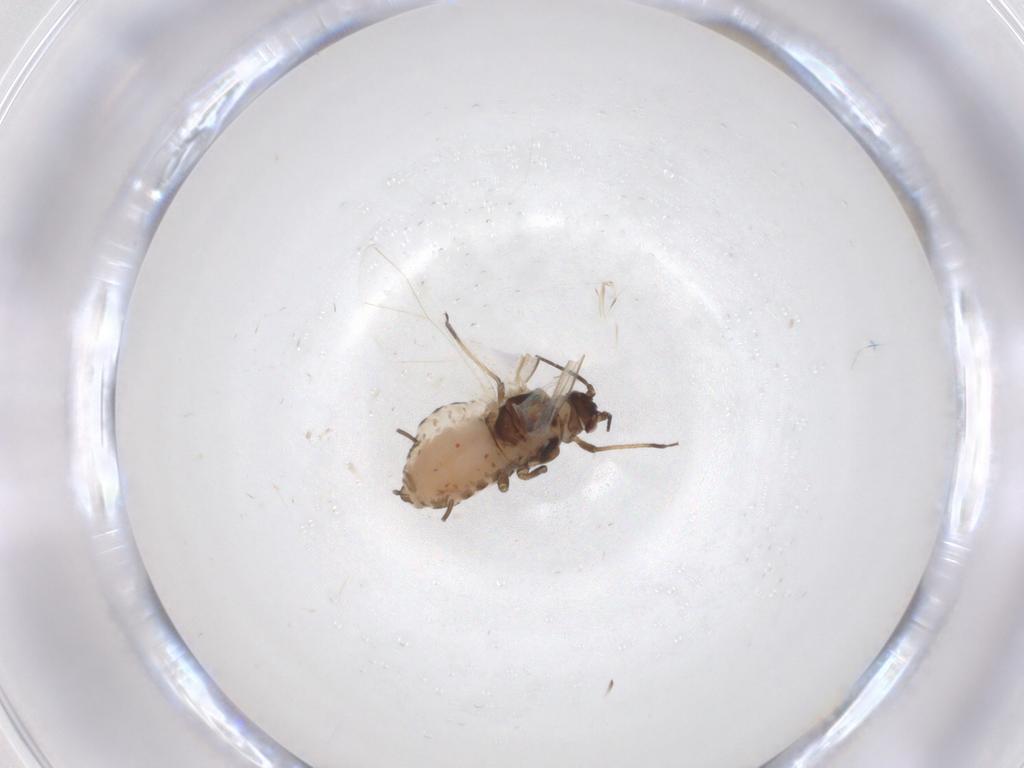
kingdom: Animalia
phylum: Arthropoda
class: Insecta
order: Hemiptera
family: Aphididae
